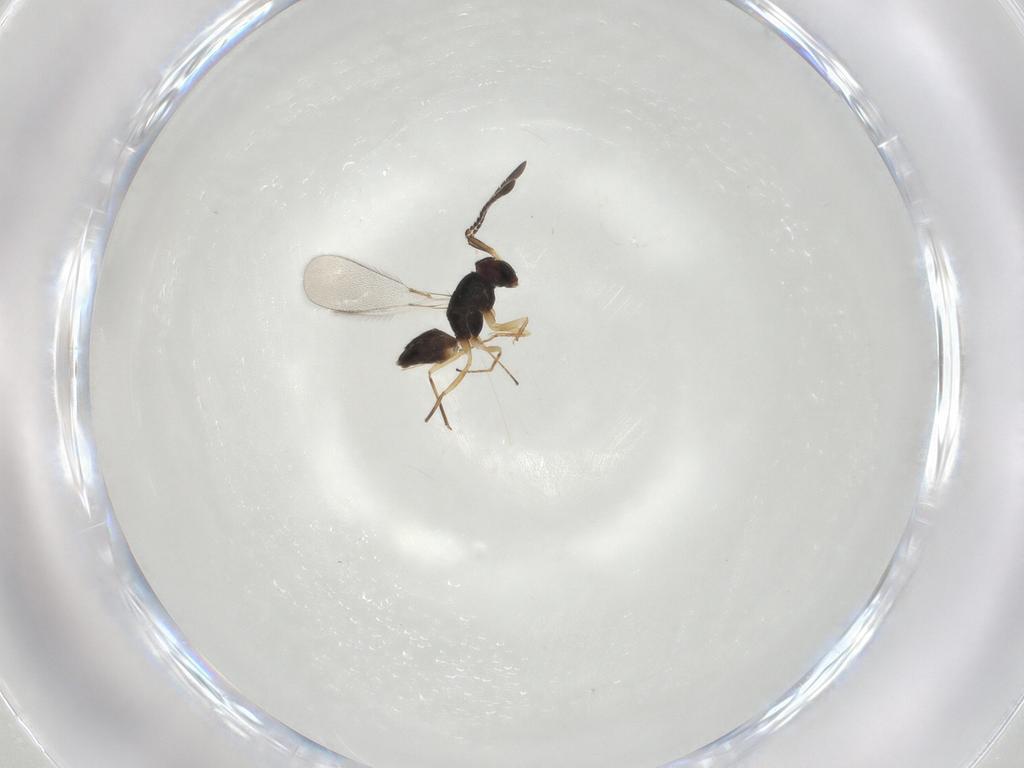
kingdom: Animalia
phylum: Arthropoda
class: Insecta
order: Hymenoptera
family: Mymaridae
